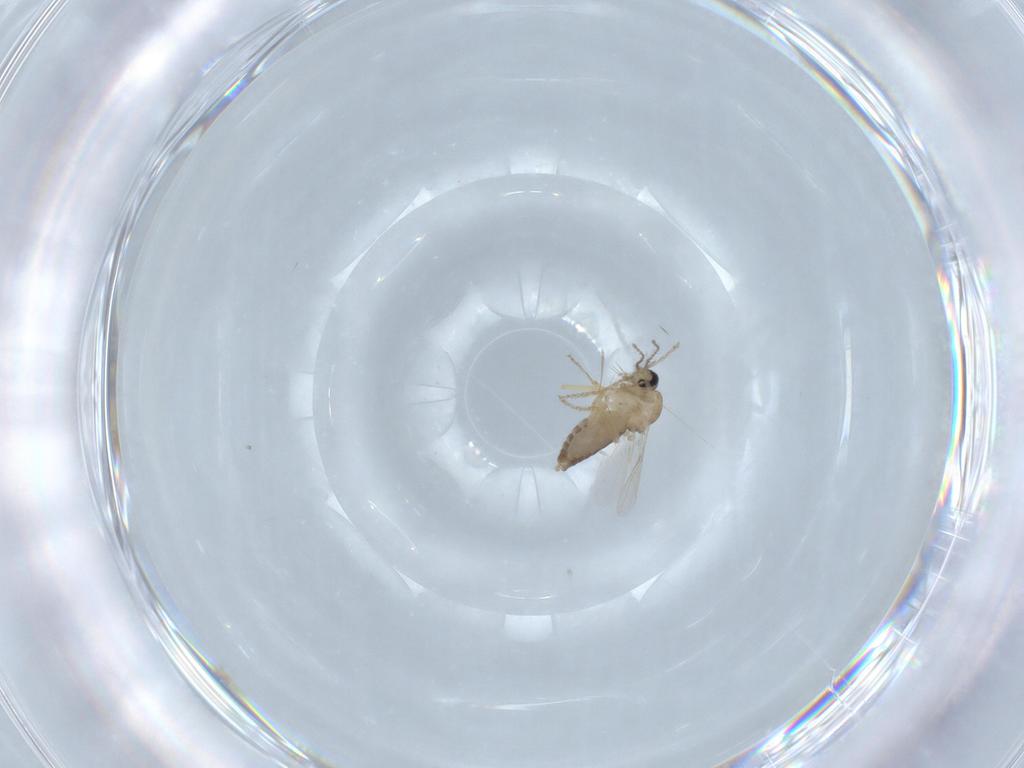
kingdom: Animalia
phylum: Arthropoda
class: Insecta
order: Diptera
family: Ceratopogonidae
